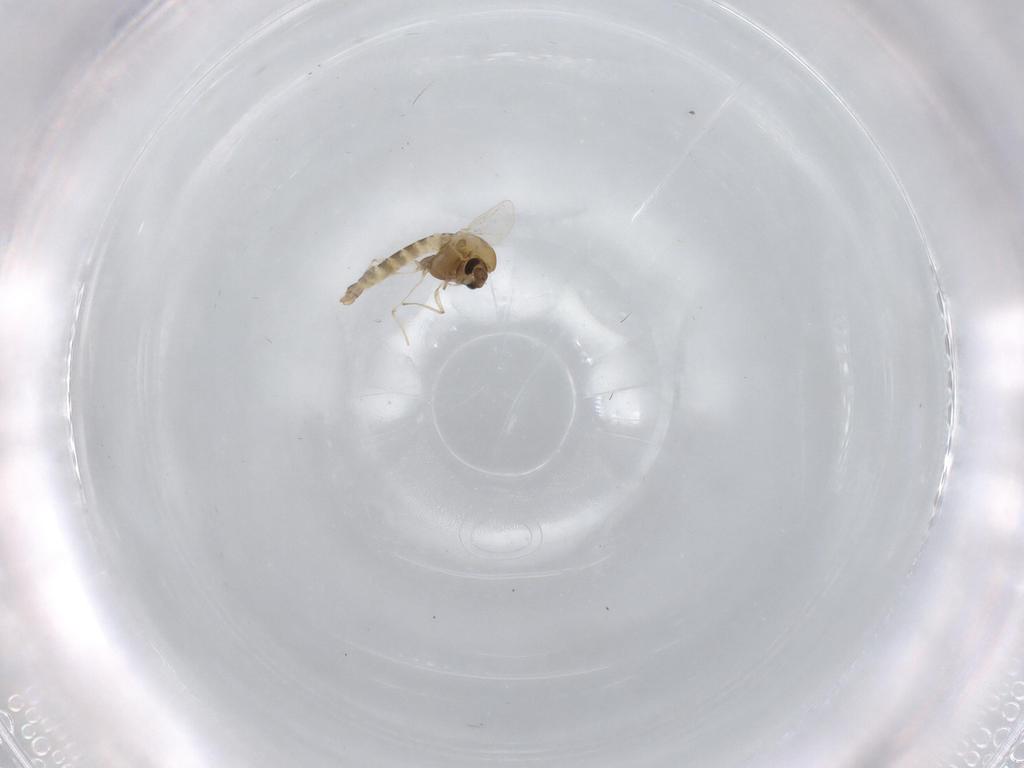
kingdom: Animalia
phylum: Arthropoda
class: Insecta
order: Diptera
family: Chironomidae
